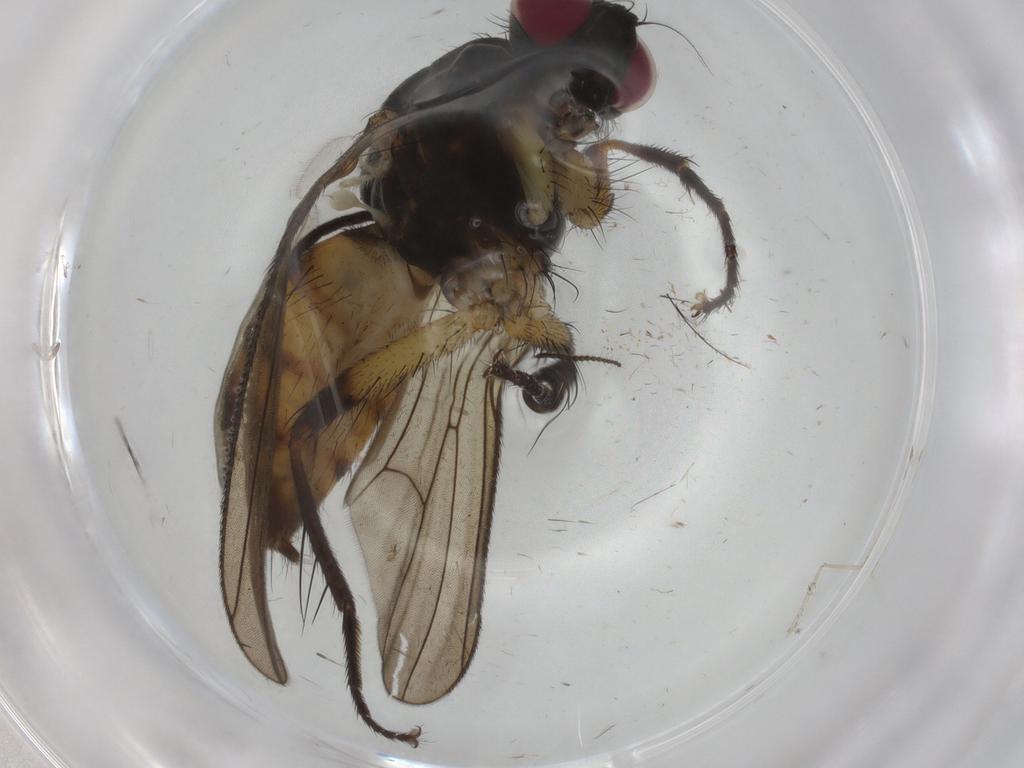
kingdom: Animalia
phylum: Arthropoda
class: Insecta
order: Diptera
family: Muscidae
